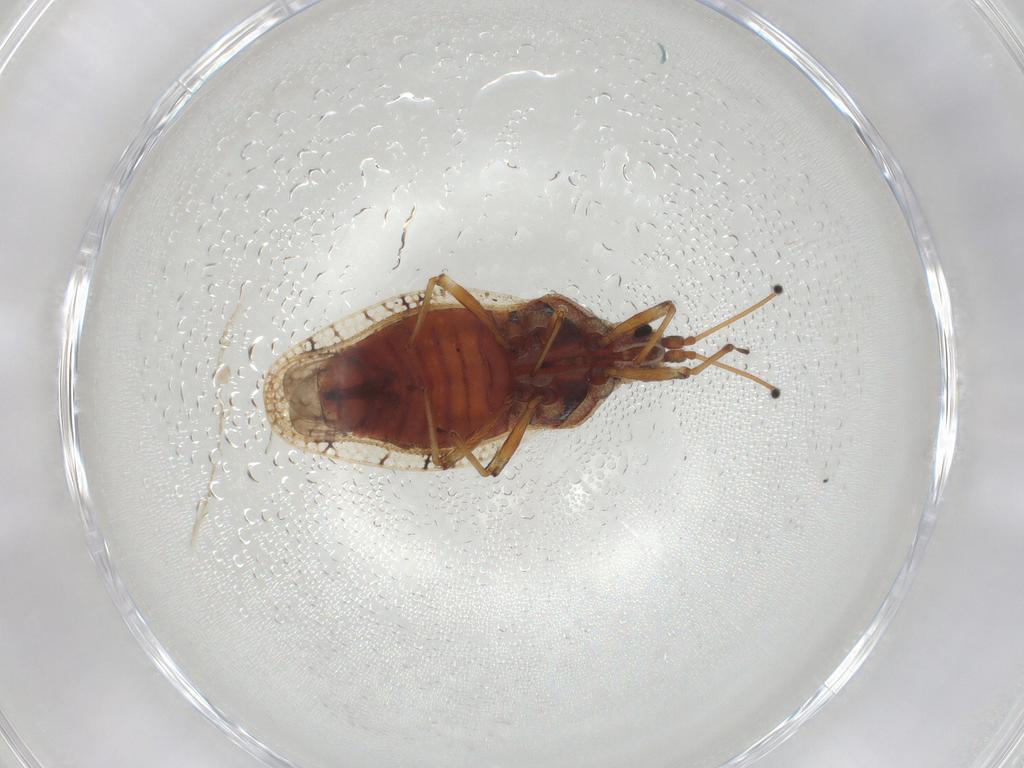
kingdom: Animalia
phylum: Arthropoda
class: Insecta
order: Hemiptera
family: Tingidae
